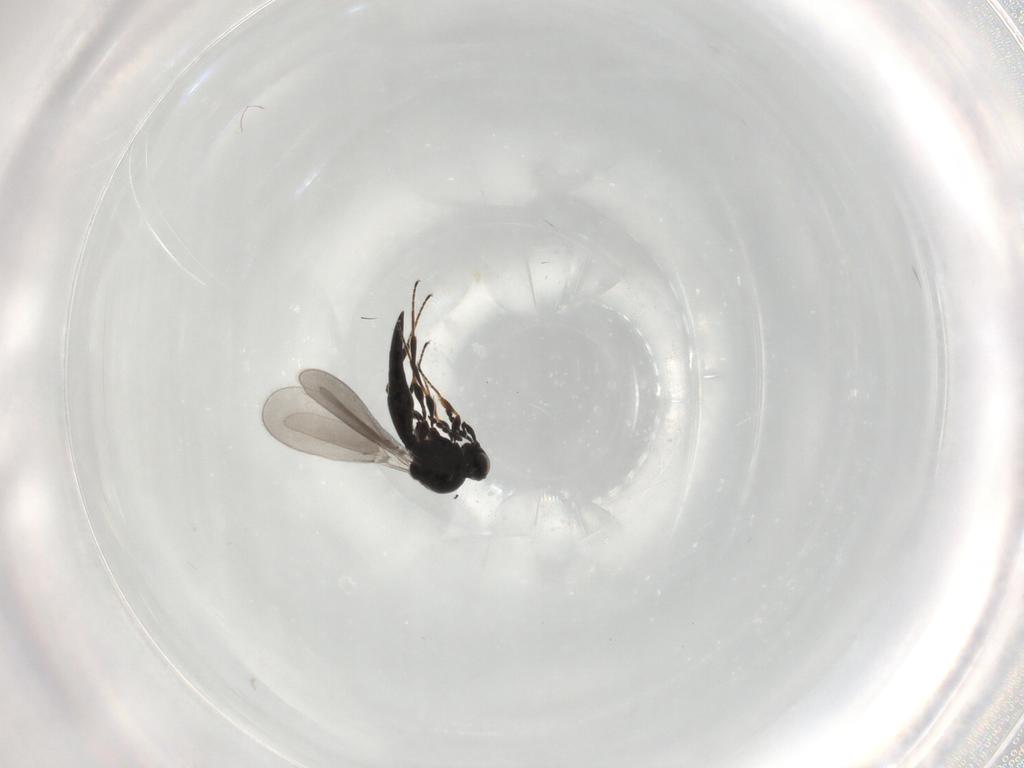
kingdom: Animalia
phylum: Arthropoda
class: Insecta
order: Hymenoptera
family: Platygastridae
